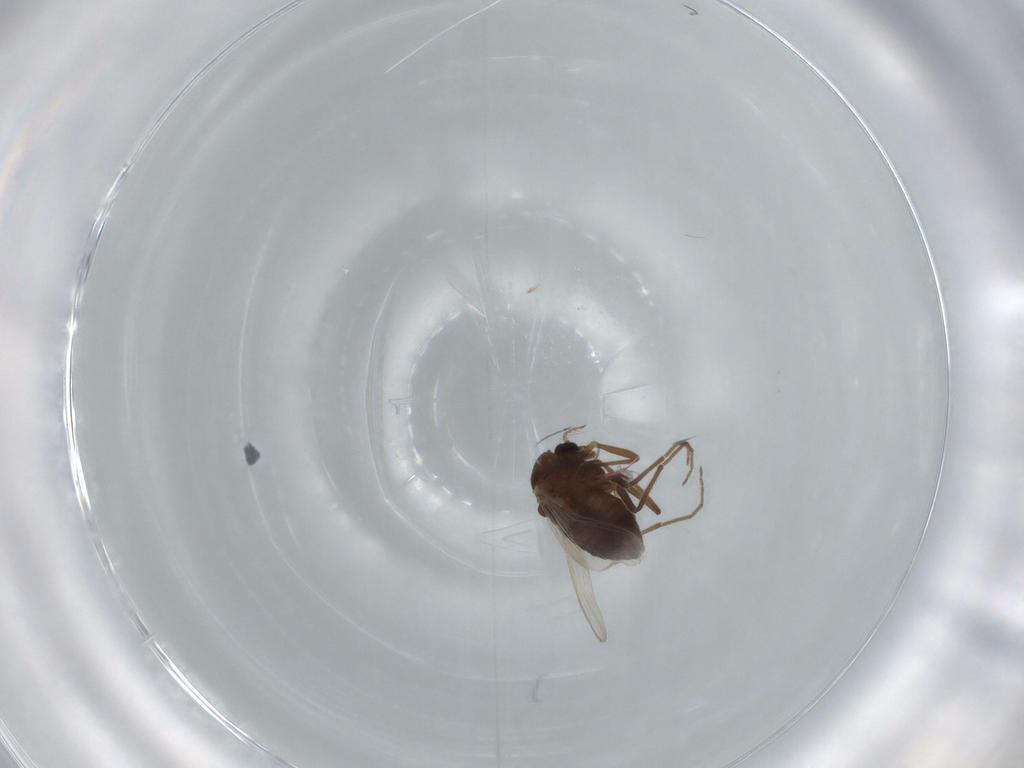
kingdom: Animalia
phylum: Arthropoda
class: Insecta
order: Diptera
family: Sphaeroceridae
